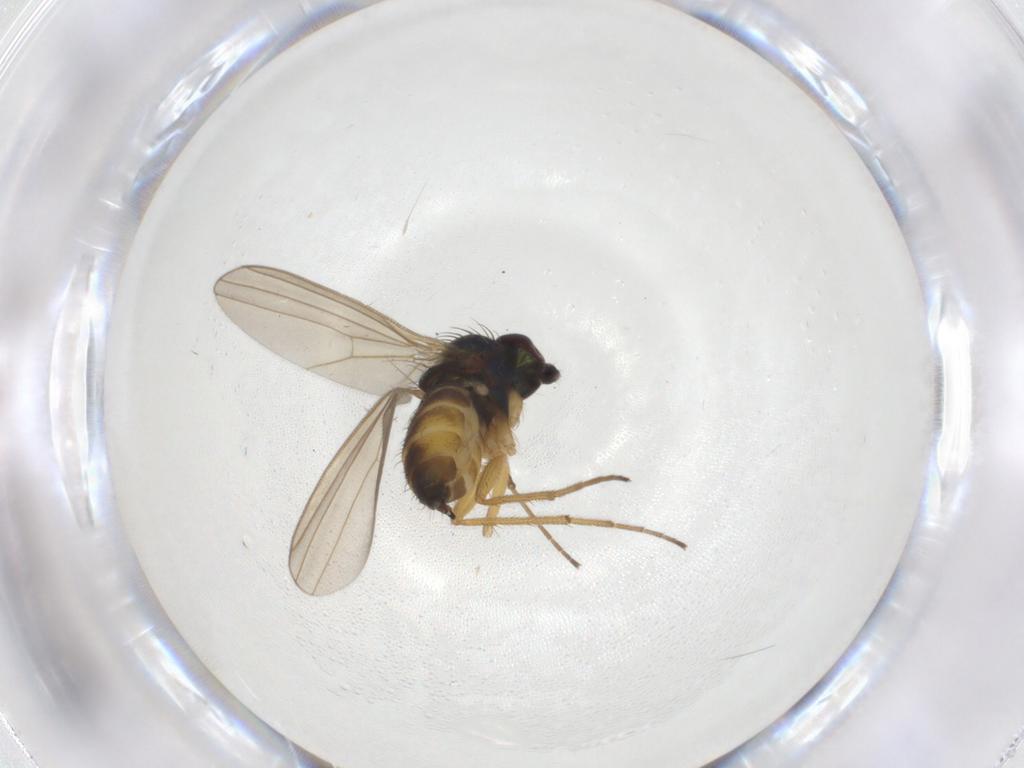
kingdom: Animalia
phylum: Arthropoda
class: Insecta
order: Diptera
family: Dolichopodidae
